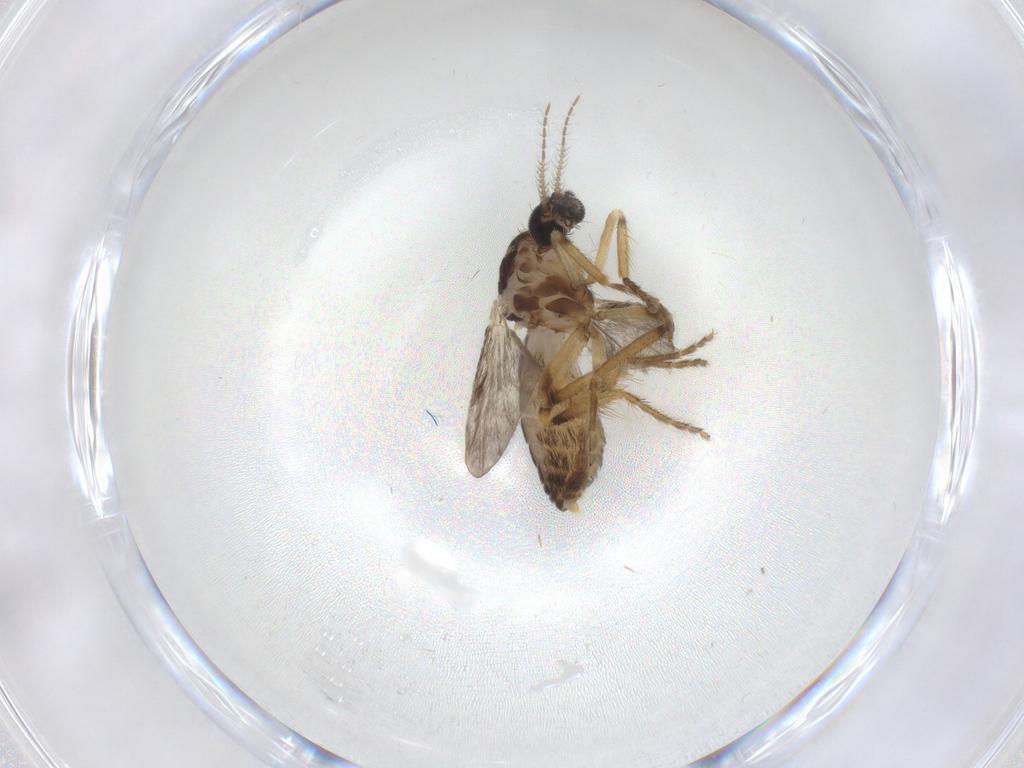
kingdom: Animalia
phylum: Arthropoda
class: Insecta
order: Diptera
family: Ceratopogonidae
